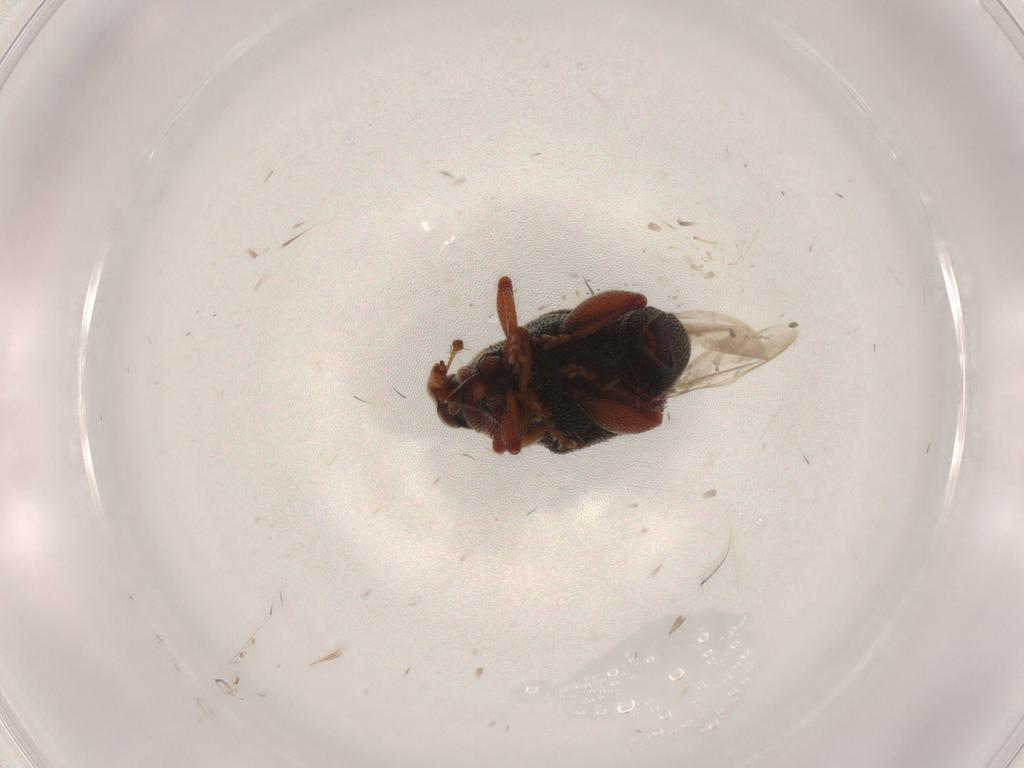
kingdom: Animalia
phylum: Arthropoda
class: Insecta
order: Coleoptera
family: Curculionidae
